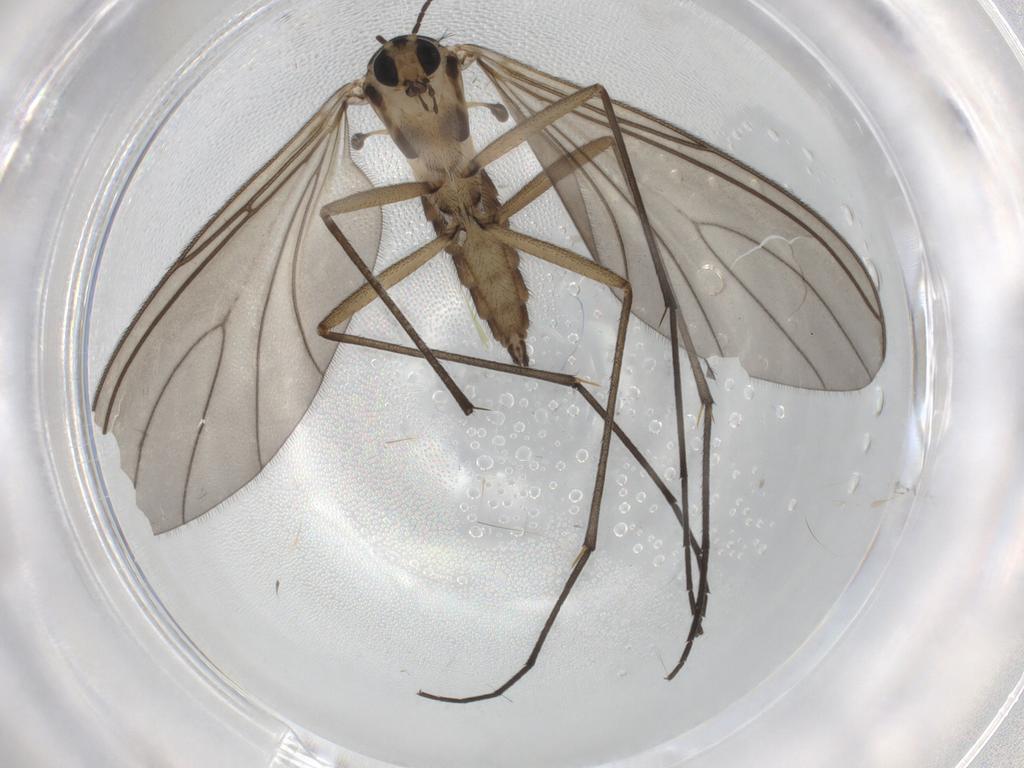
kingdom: Animalia
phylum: Arthropoda
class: Insecta
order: Diptera
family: Sciaridae
